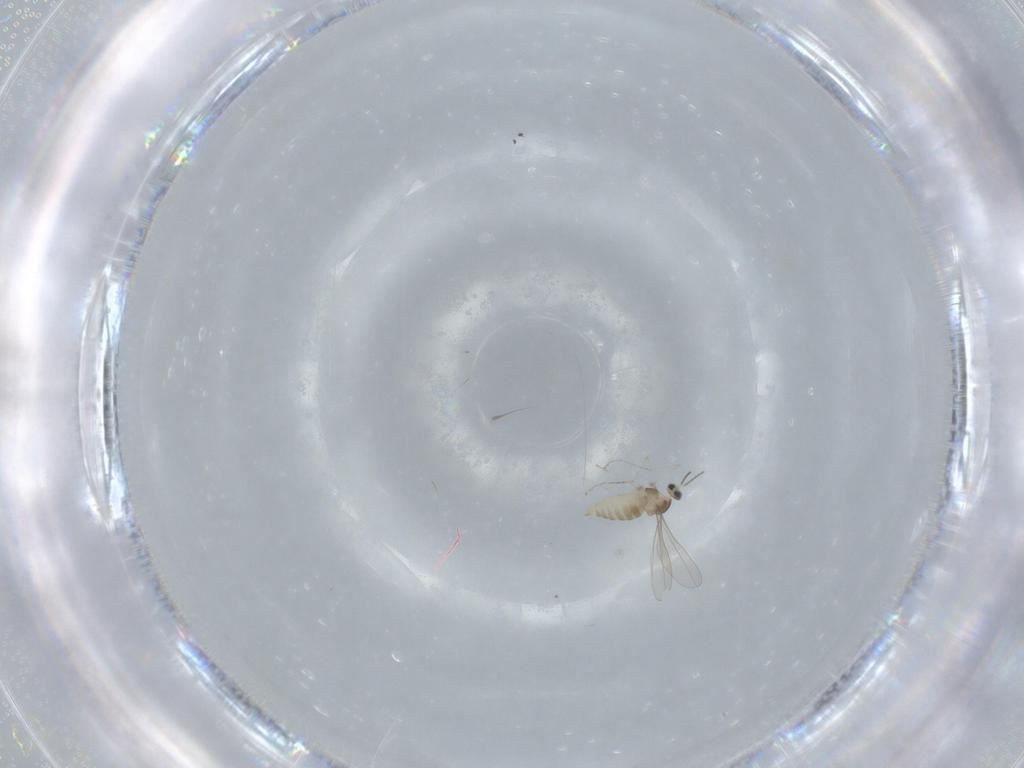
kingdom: Animalia
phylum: Arthropoda
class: Insecta
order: Diptera
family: Cecidomyiidae
